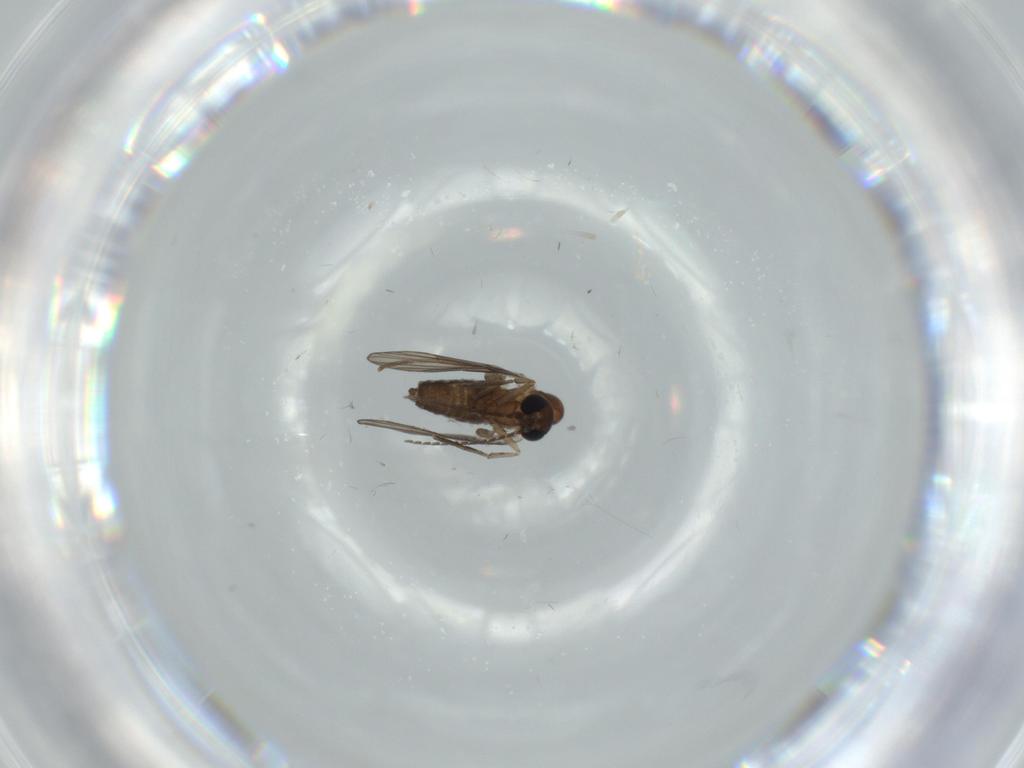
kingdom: Animalia
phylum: Arthropoda
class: Insecta
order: Diptera
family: Psychodidae
